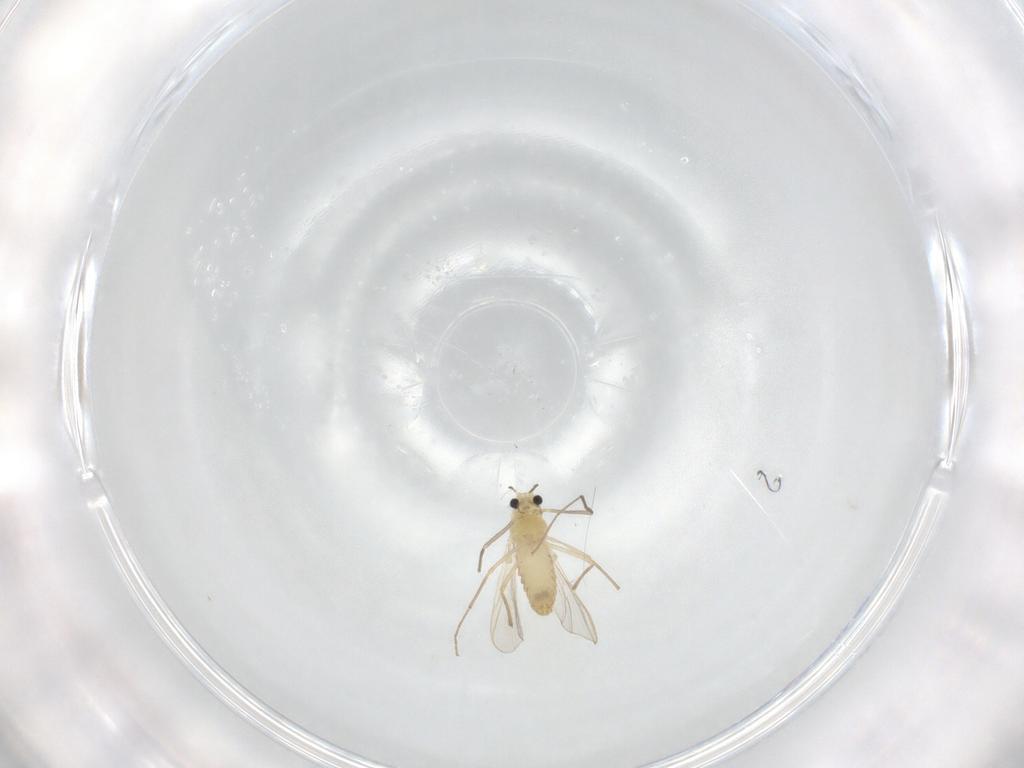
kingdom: Animalia
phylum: Arthropoda
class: Insecta
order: Diptera
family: Chironomidae
